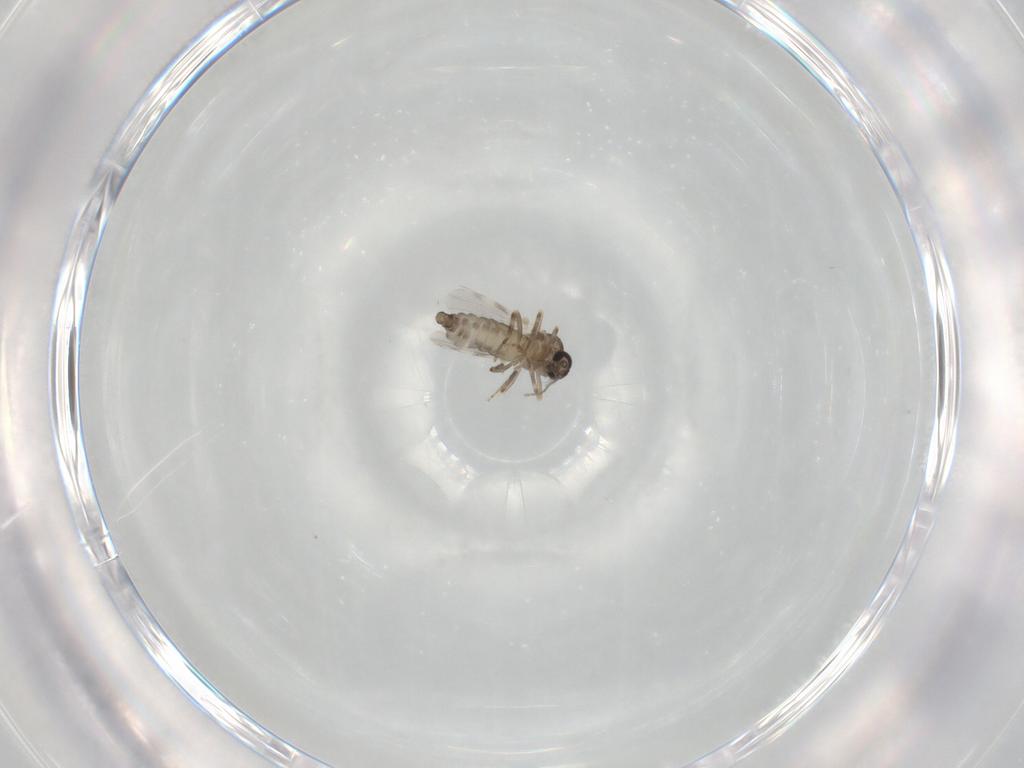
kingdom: Animalia
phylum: Arthropoda
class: Insecta
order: Diptera
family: Ceratopogonidae
